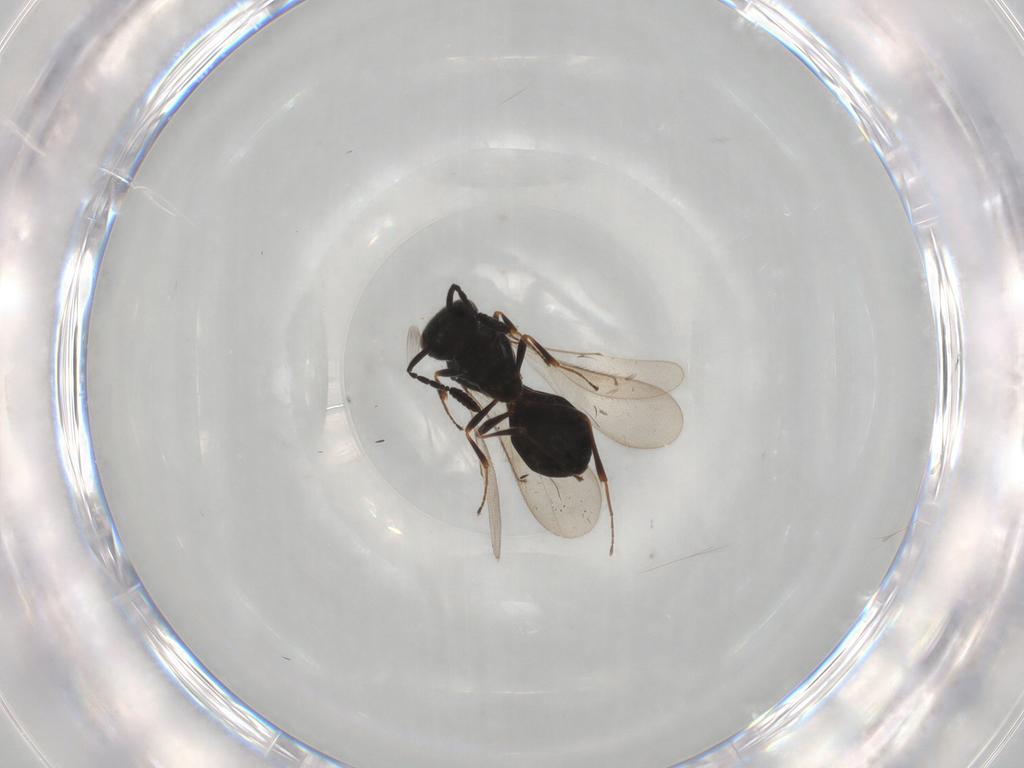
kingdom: Animalia
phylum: Arthropoda
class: Insecta
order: Hymenoptera
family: Scelionidae
